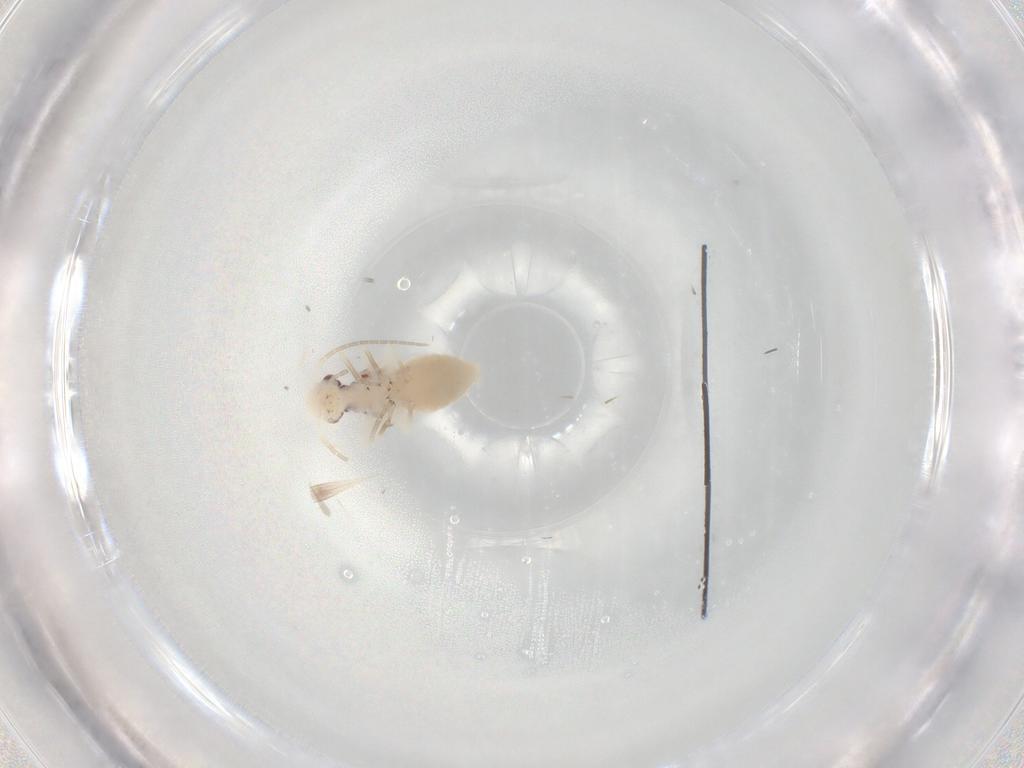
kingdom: Animalia
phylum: Arthropoda
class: Insecta
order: Psocodea
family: Archipsocidae
